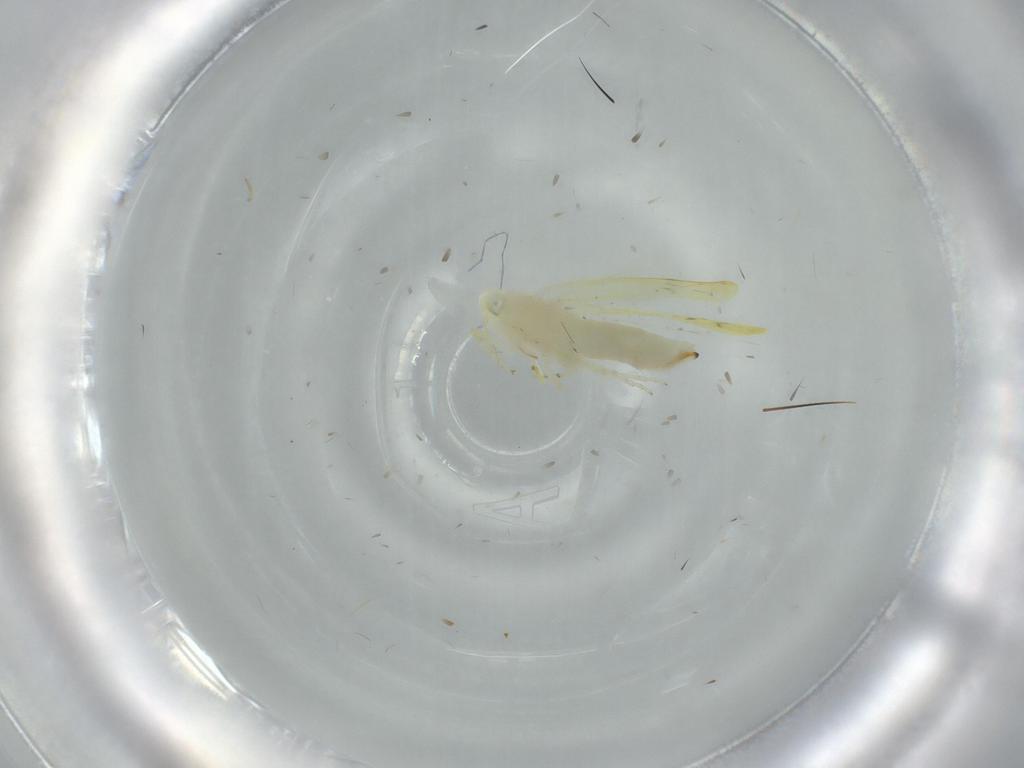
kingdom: Animalia
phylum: Arthropoda
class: Insecta
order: Hemiptera
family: Cicadellidae
